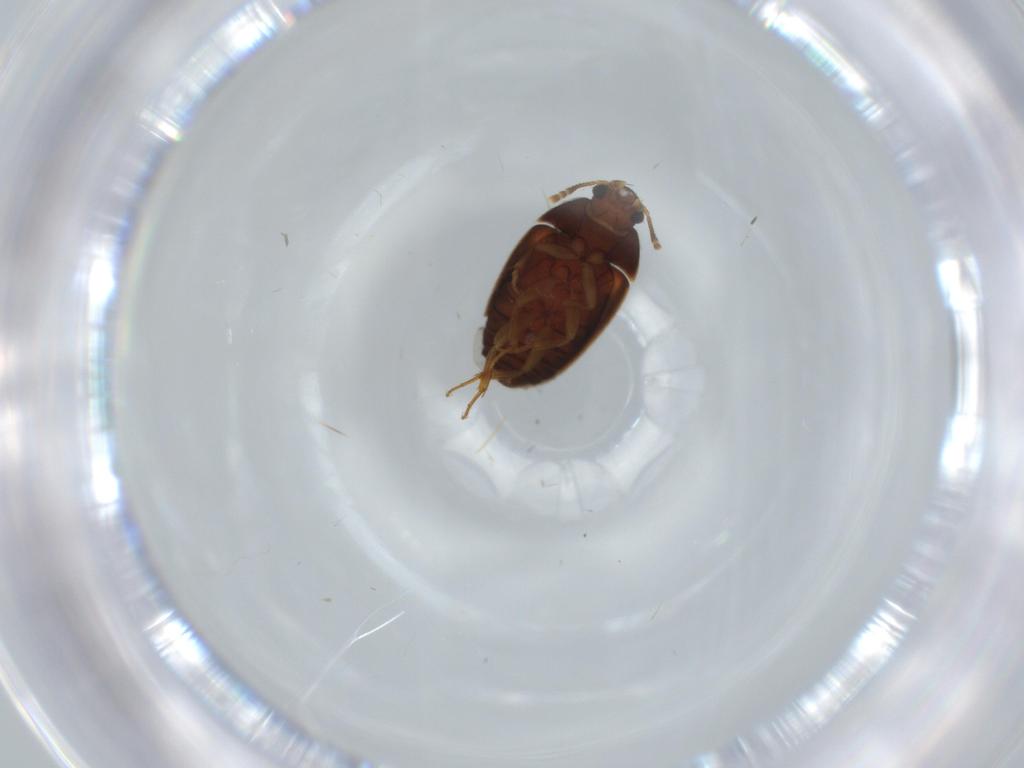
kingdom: Animalia
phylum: Arthropoda
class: Insecta
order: Coleoptera
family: Mycetophagidae
